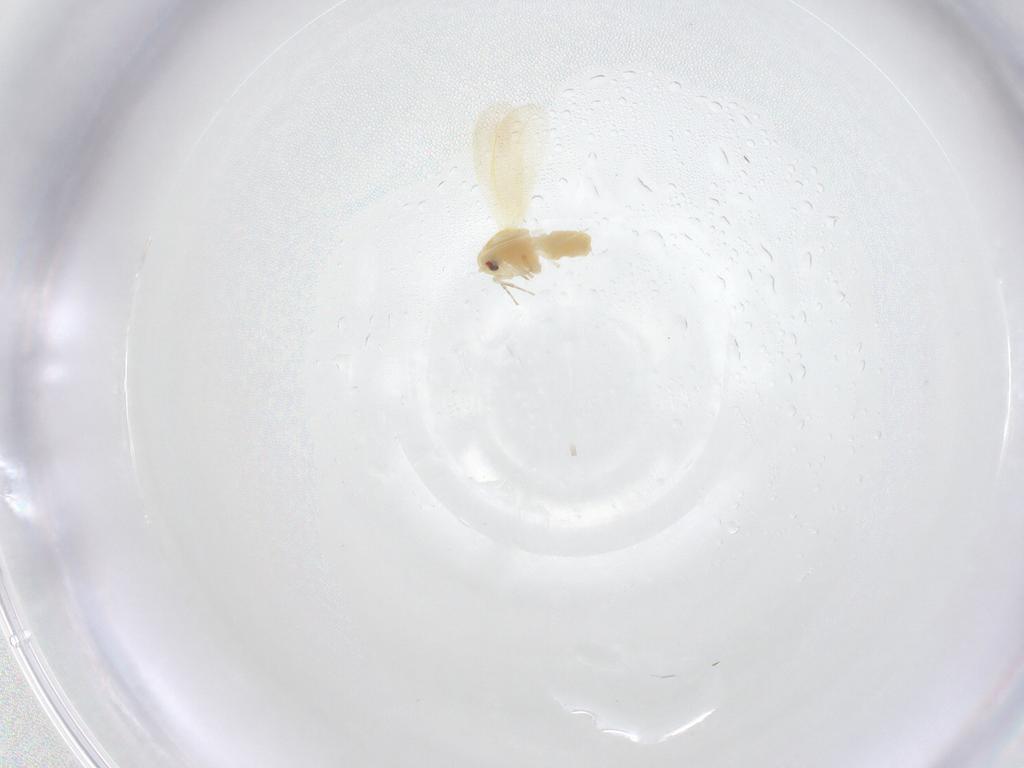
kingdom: Animalia
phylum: Arthropoda
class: Insecta
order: Hemiptera
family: Aleyrodidae
